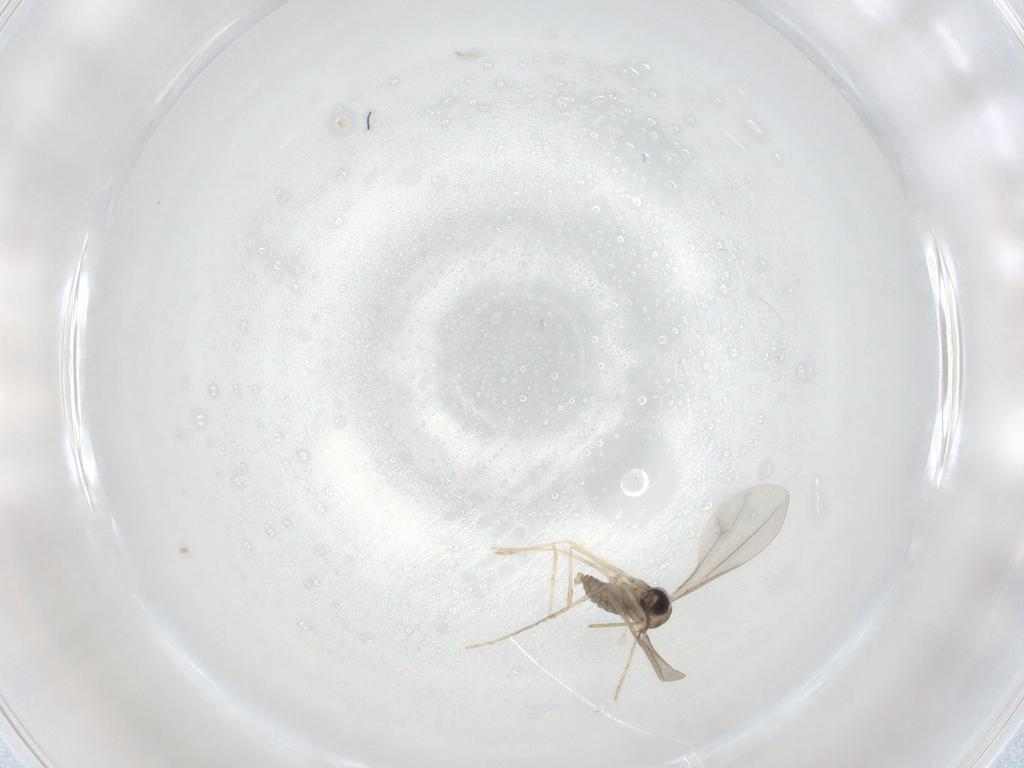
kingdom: Animalia
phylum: Arthropoda
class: Insecta
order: Diptera
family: Cecidomyiidae
